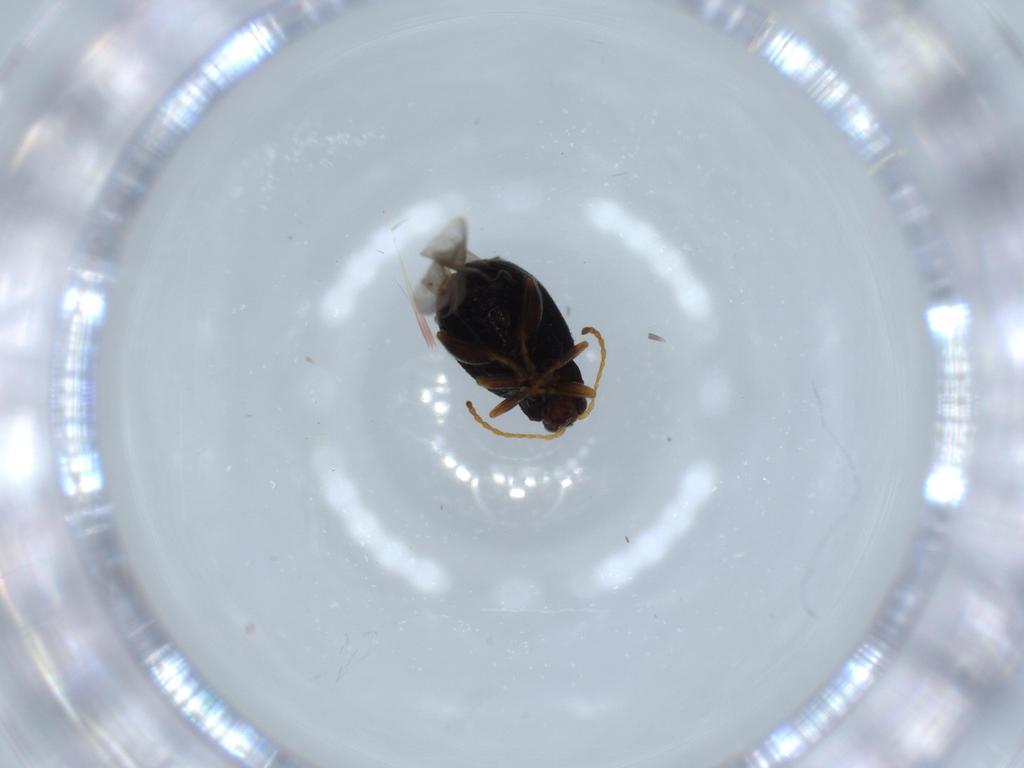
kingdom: Animalia
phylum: Arthropoda
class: Insecta
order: Coleoptera
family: Chrysomelidae
